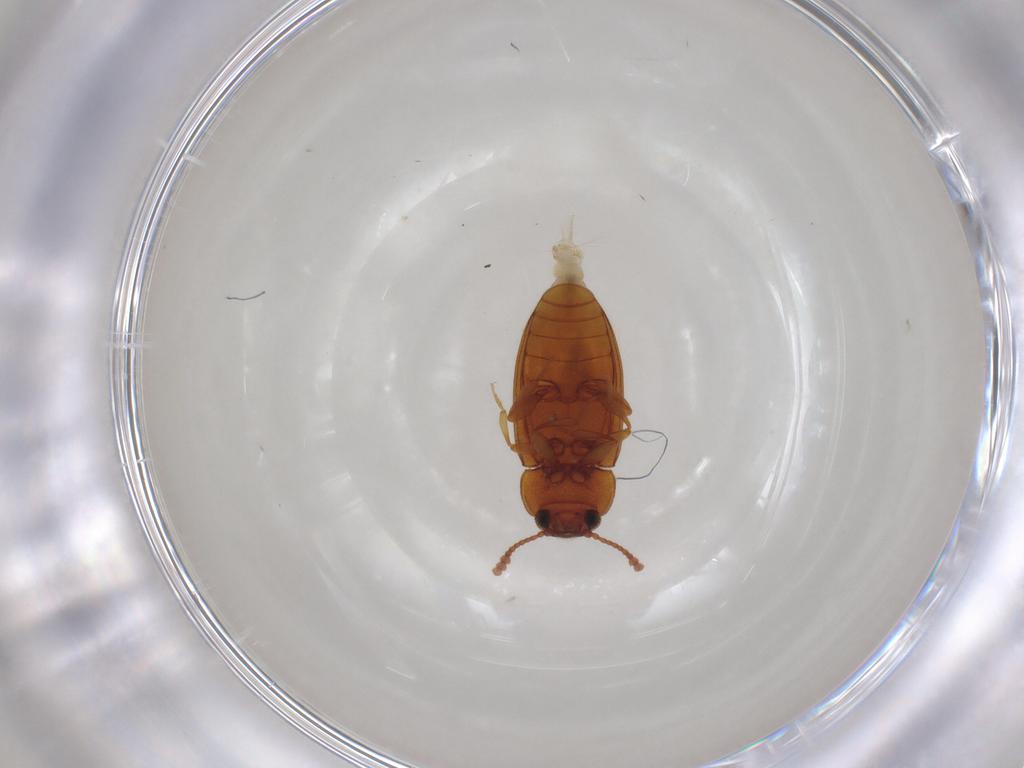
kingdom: Animalia
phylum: Arthropoda
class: Insecta
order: Coleoptera
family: Erotylidae
